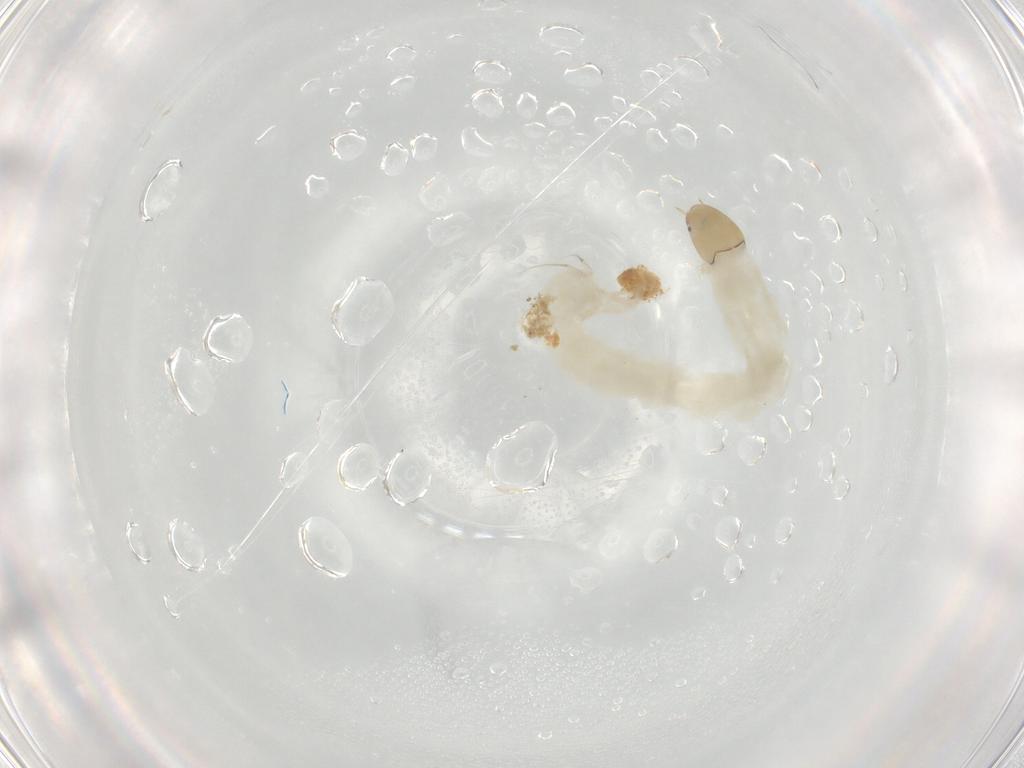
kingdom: Animalia
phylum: Arthropoda
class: Insecta
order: Diptera
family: Chironomidae
